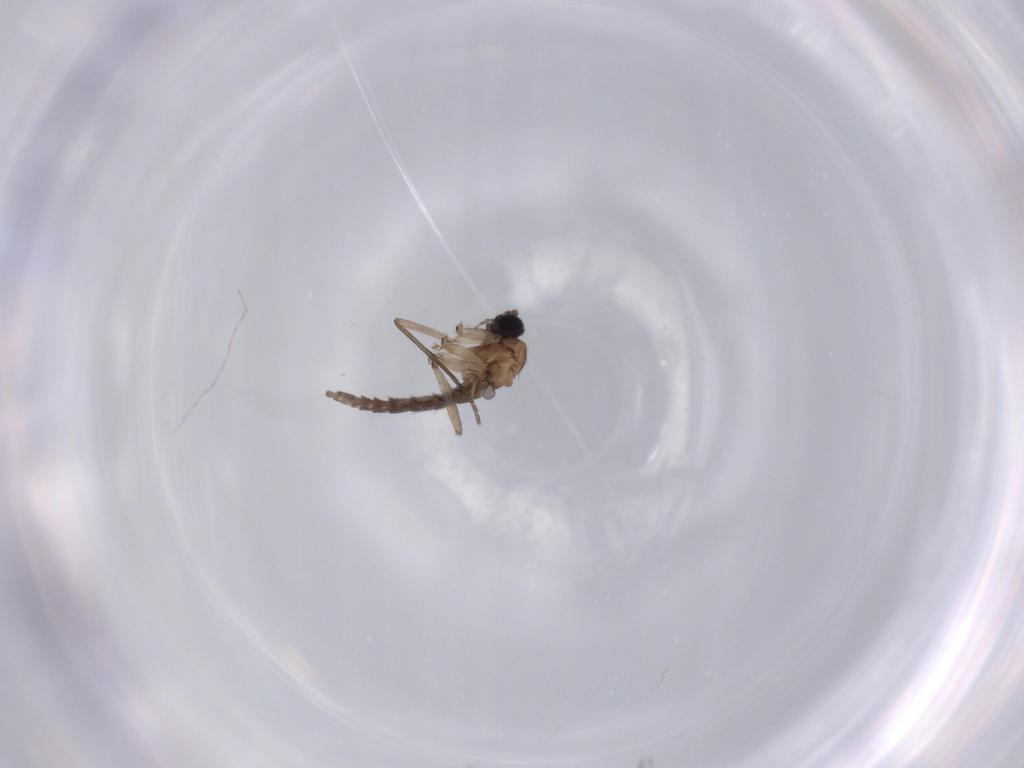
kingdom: Animalia
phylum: Arthropoda
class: Insecta
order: Diptera
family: Sciaridae
